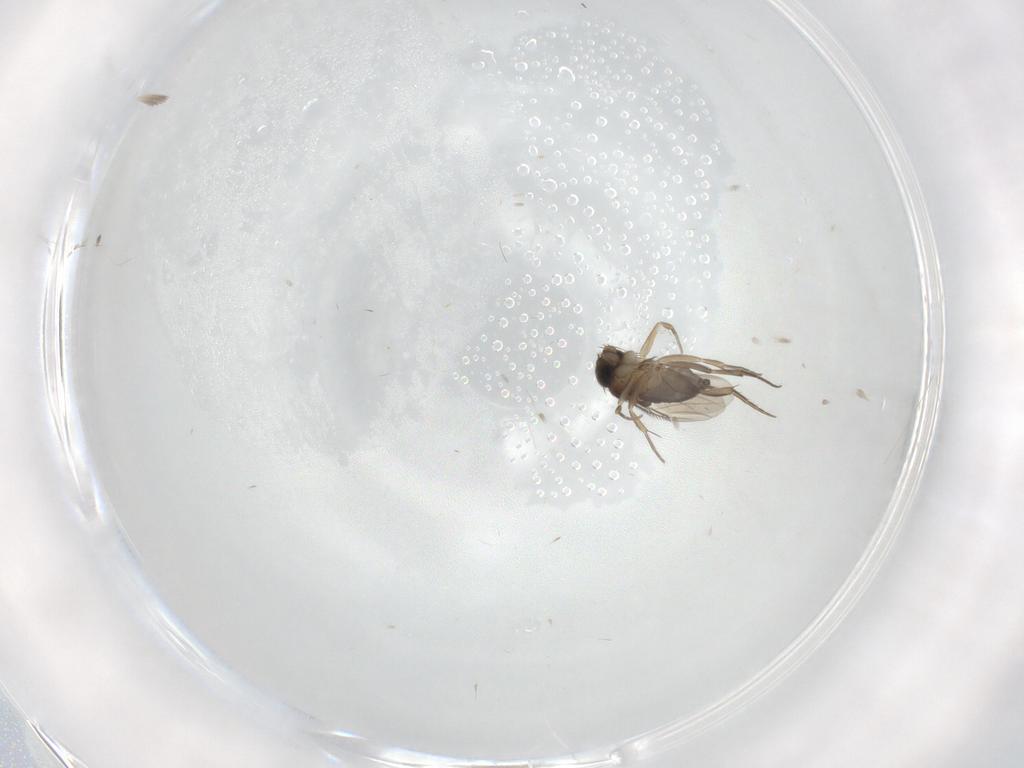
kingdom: Animalia
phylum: Arthropoda
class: Insecta
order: Diptera
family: Phoridae
